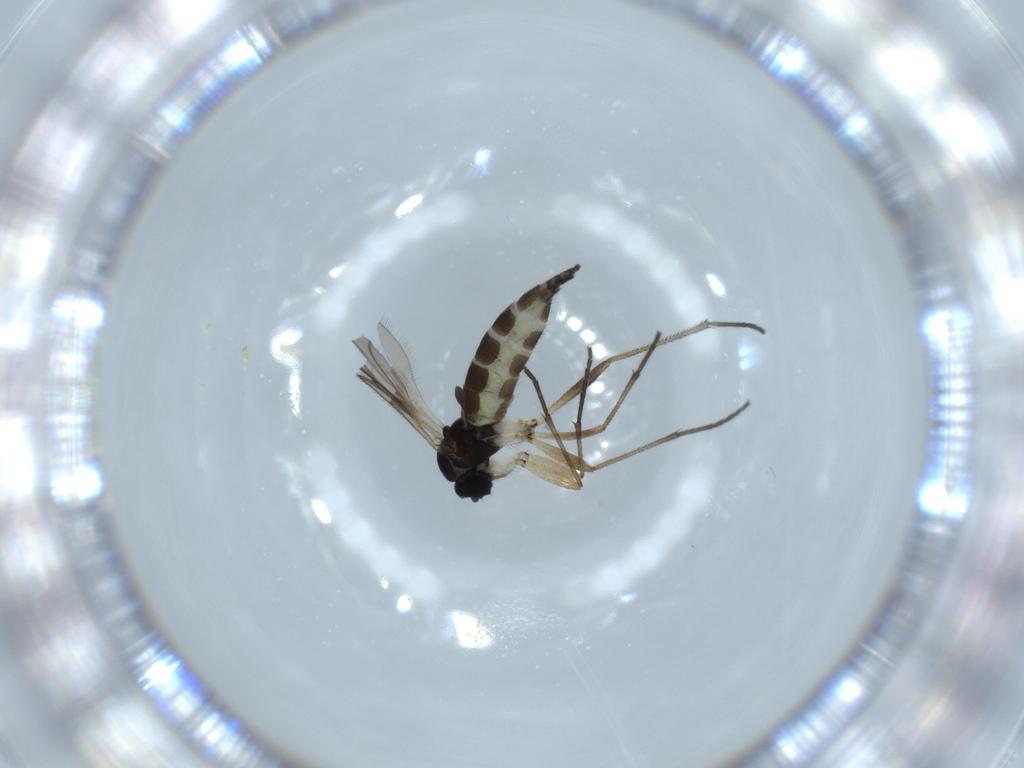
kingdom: Animalia
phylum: Arthropoda
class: Insecta
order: Diptera
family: Sciaridae
